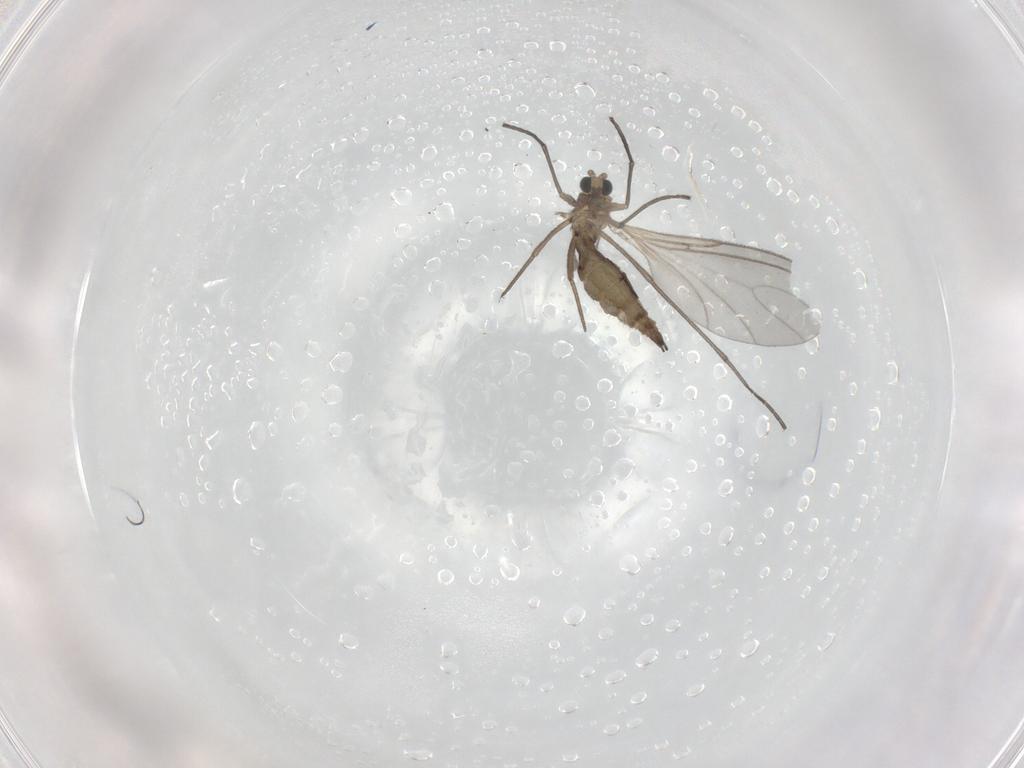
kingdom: Animalia
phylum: Arthropoda
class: Insecta
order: Diptera
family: Sciaridae
